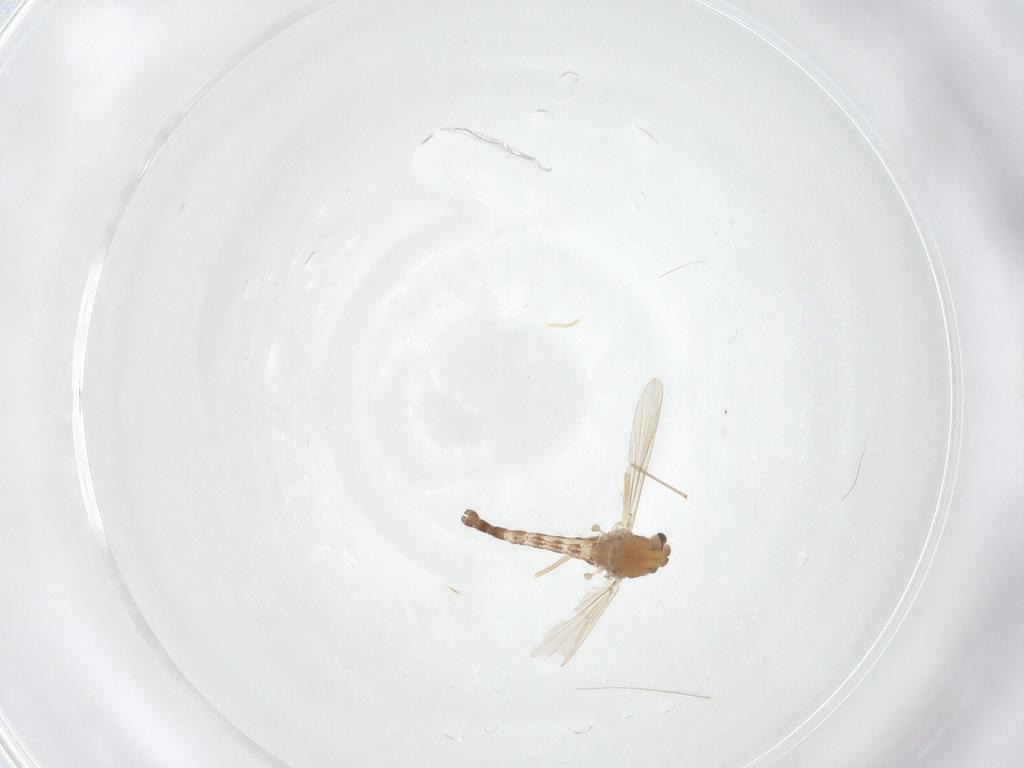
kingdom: Animalia
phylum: Arthropoda
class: Insecta
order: Diptera
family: Chironomidae
